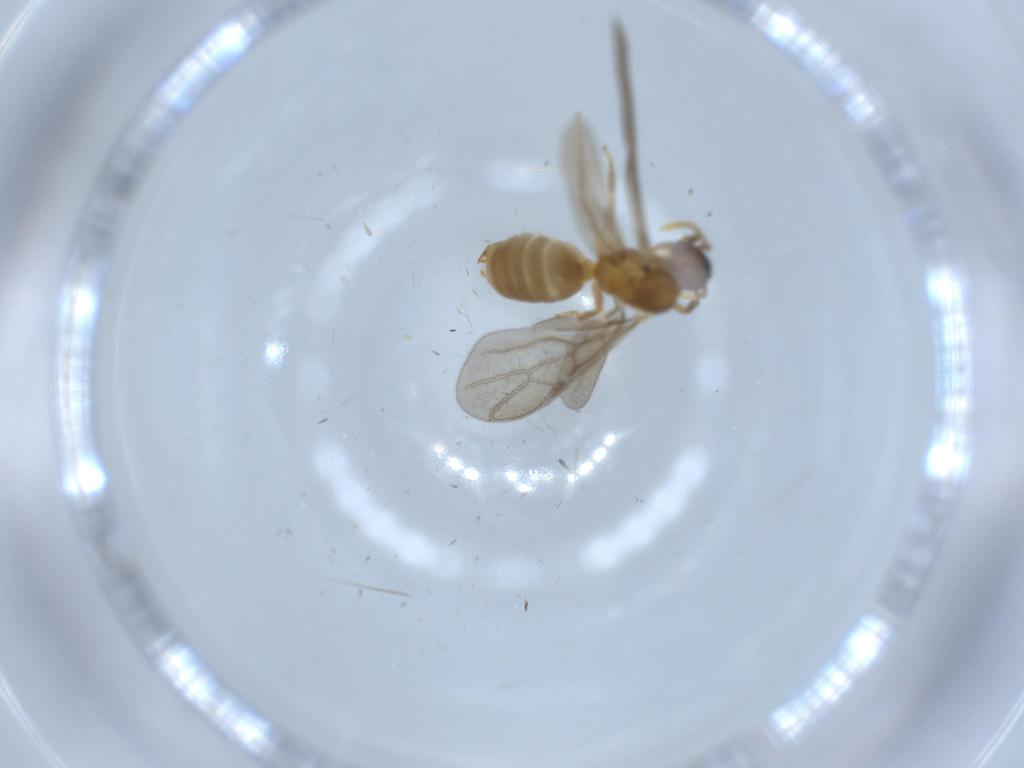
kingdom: Animalia
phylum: Arthropoda
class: Insecta
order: Hymenoptera
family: Formicidae
